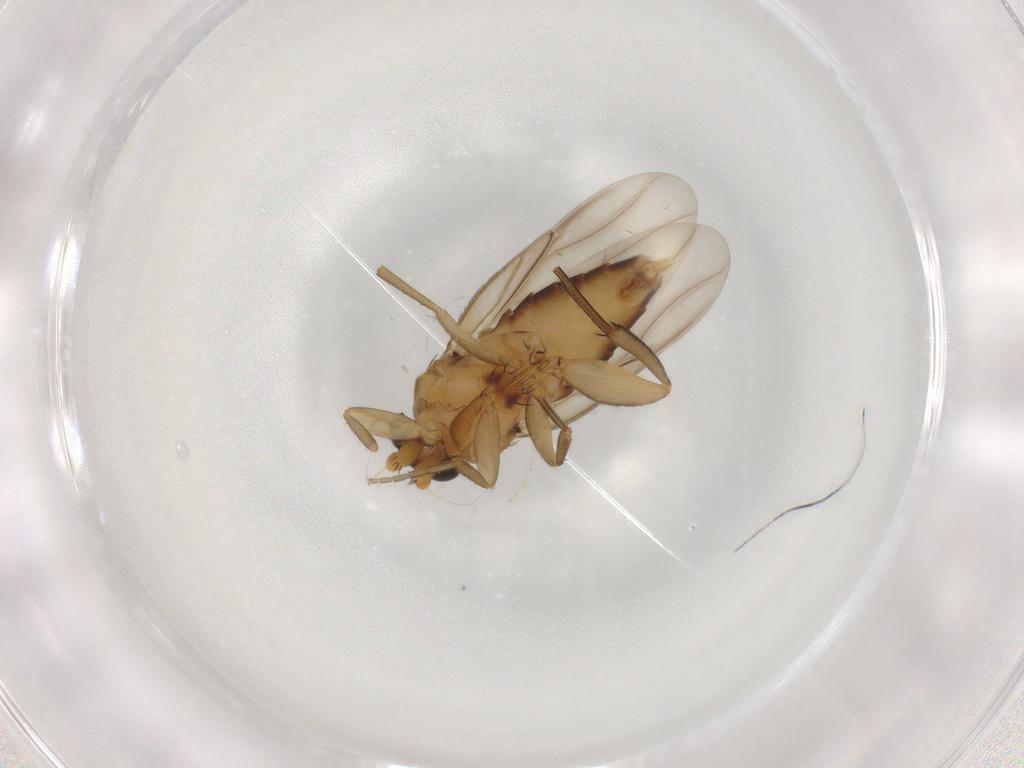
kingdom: Animalia
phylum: Arthropoda
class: Insecta
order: Diptera
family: Cecidomyiidae
